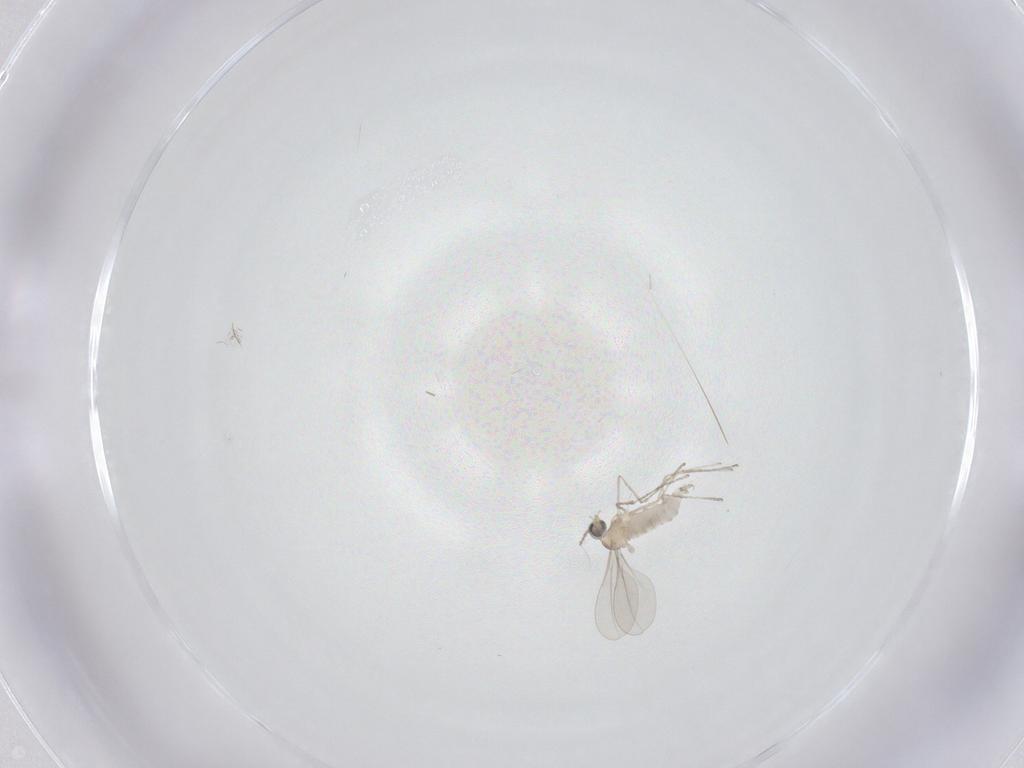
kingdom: Animalia
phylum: Arthropoda
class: Insecta
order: Diptera
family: Cecidomyiidae
